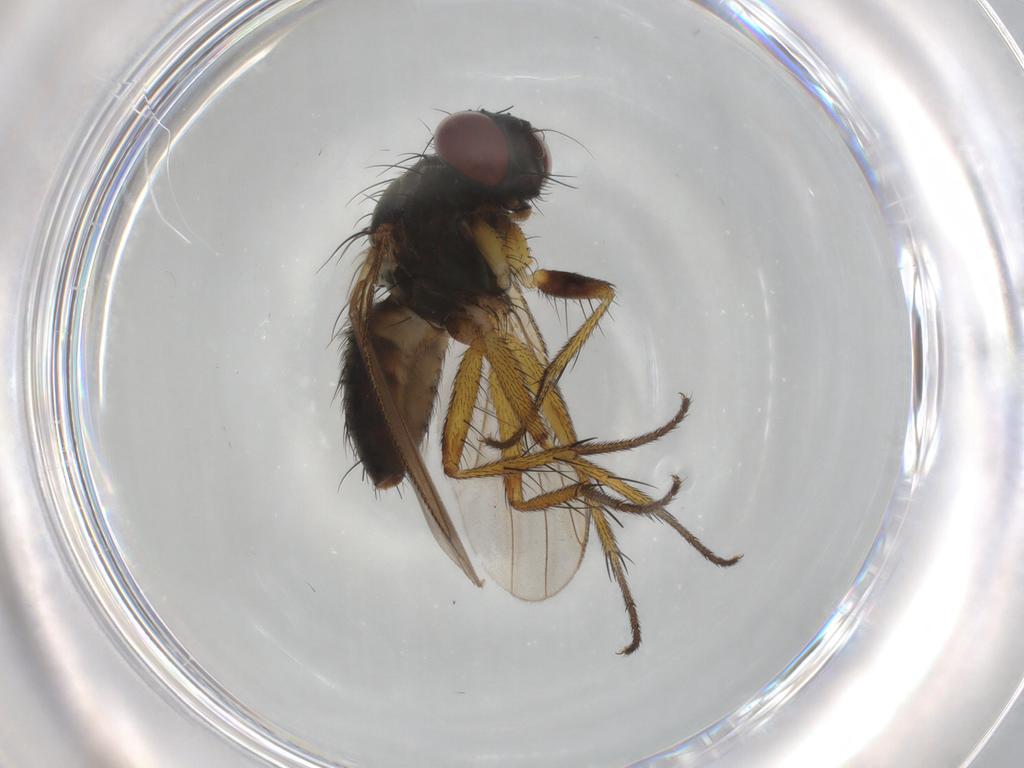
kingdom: Animalia
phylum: Arthropoda
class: Insecta
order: Diptera
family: Muscidae
